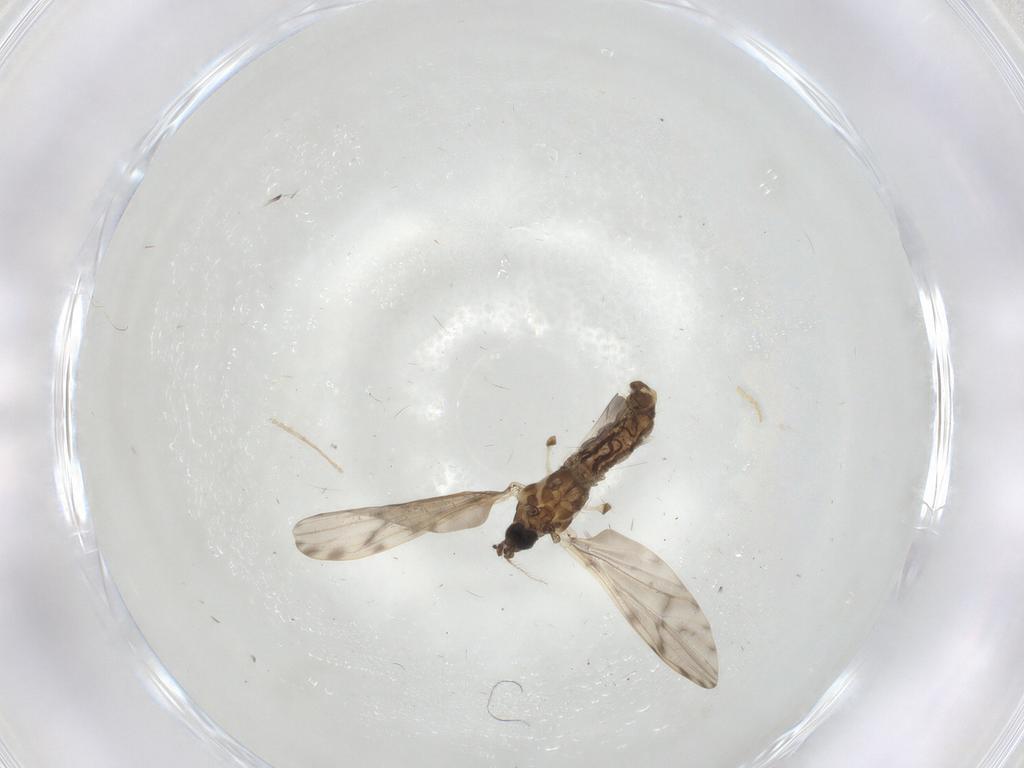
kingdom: Animalia
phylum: Arthropoda
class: Insecta
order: Diptera
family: Limoniidae
